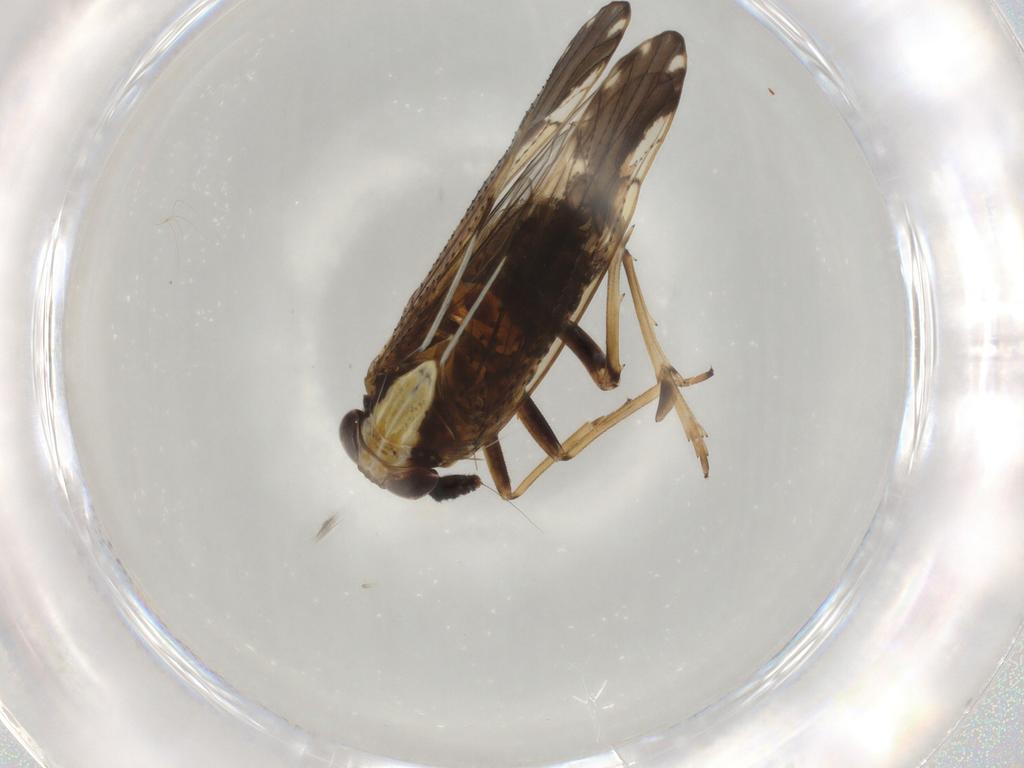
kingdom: Animalia
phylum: Arthropoda
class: Insecta
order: Hemiptera
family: Delphacidae
